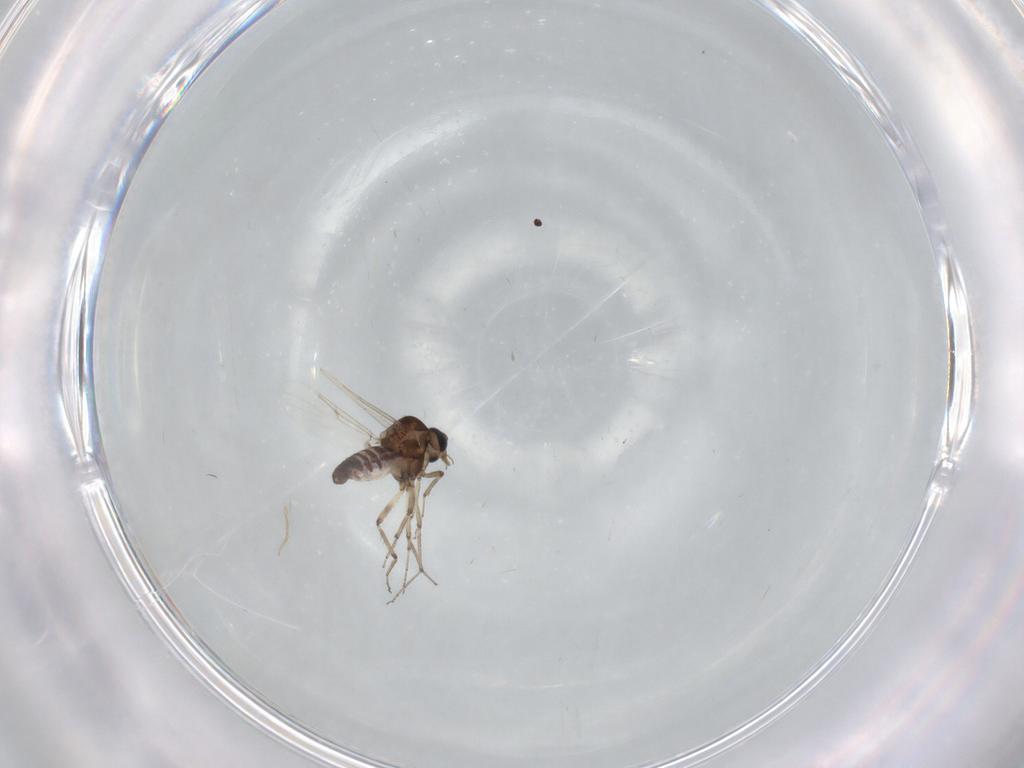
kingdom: Animalia
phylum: Arthropoda
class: Insecta
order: Diptera
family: Ceratopogonidae
